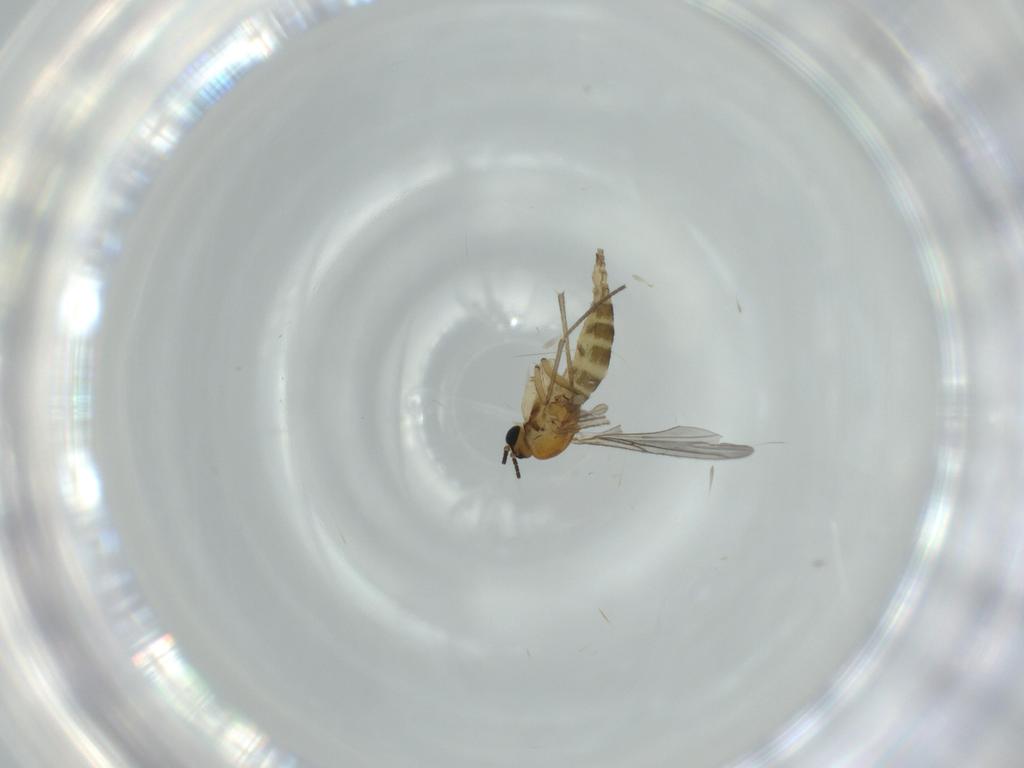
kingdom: Animalia
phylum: Arthropoda
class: Insecta
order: Diptera
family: Sciaridae
